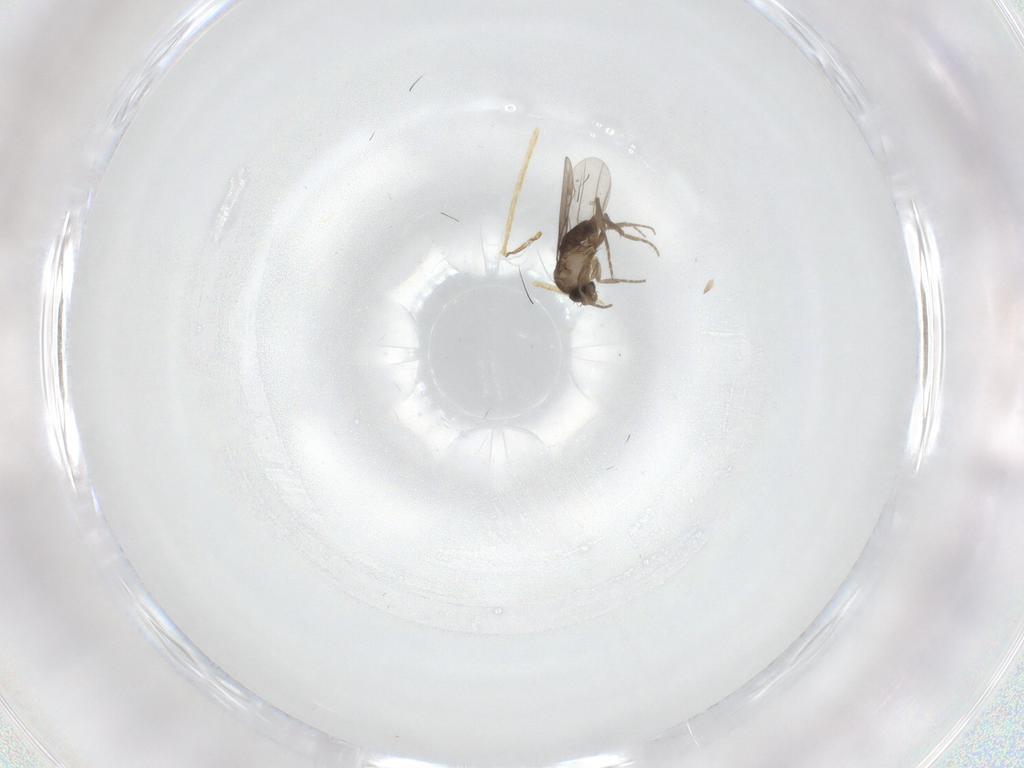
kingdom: Animalia
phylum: Arthropoda
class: Insecta
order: Diptera
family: Chironomidae
